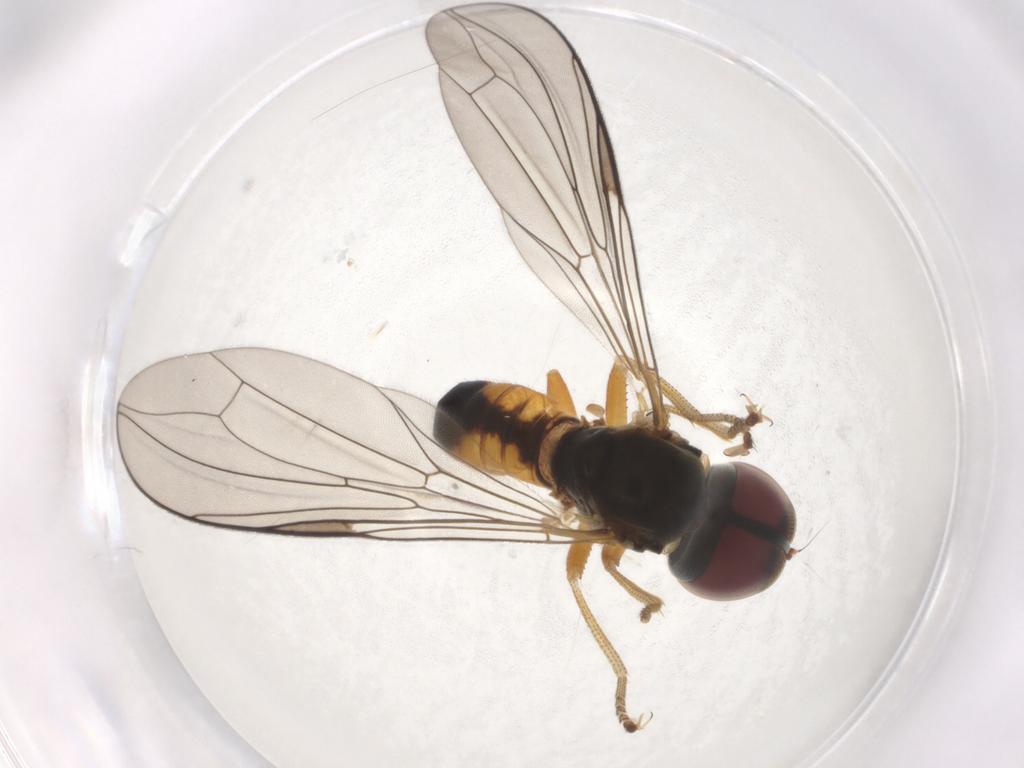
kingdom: Animalia
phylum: Arthropoda
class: Insecta
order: Diptera
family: Pipunculidae
